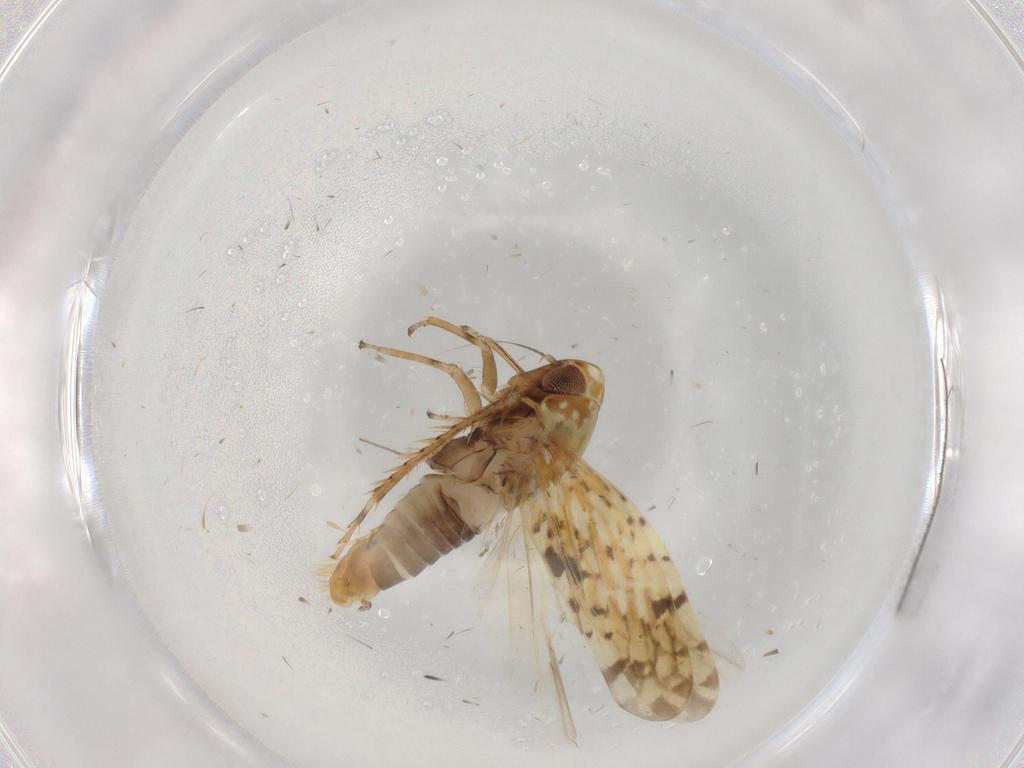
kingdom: Animalia
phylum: Arthropoda
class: Insecta
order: Hemiptera
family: Cicadellidae
